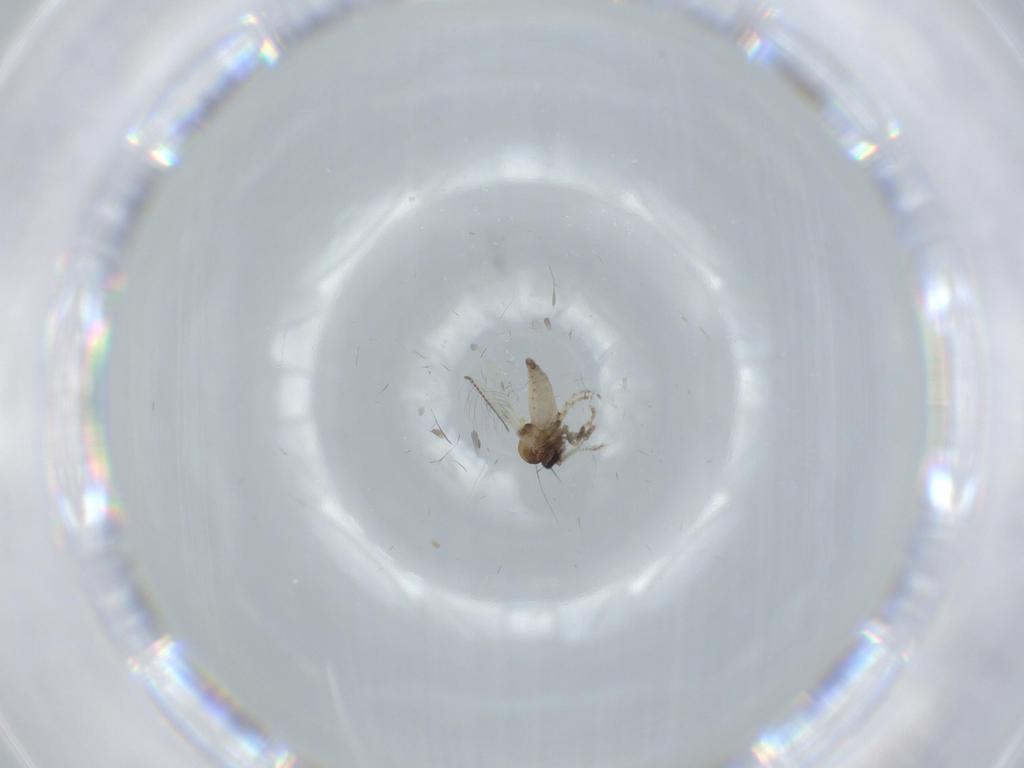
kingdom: Animalia
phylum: Arthropoda
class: Insecta
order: Diptera
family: Ceratopogonidae
